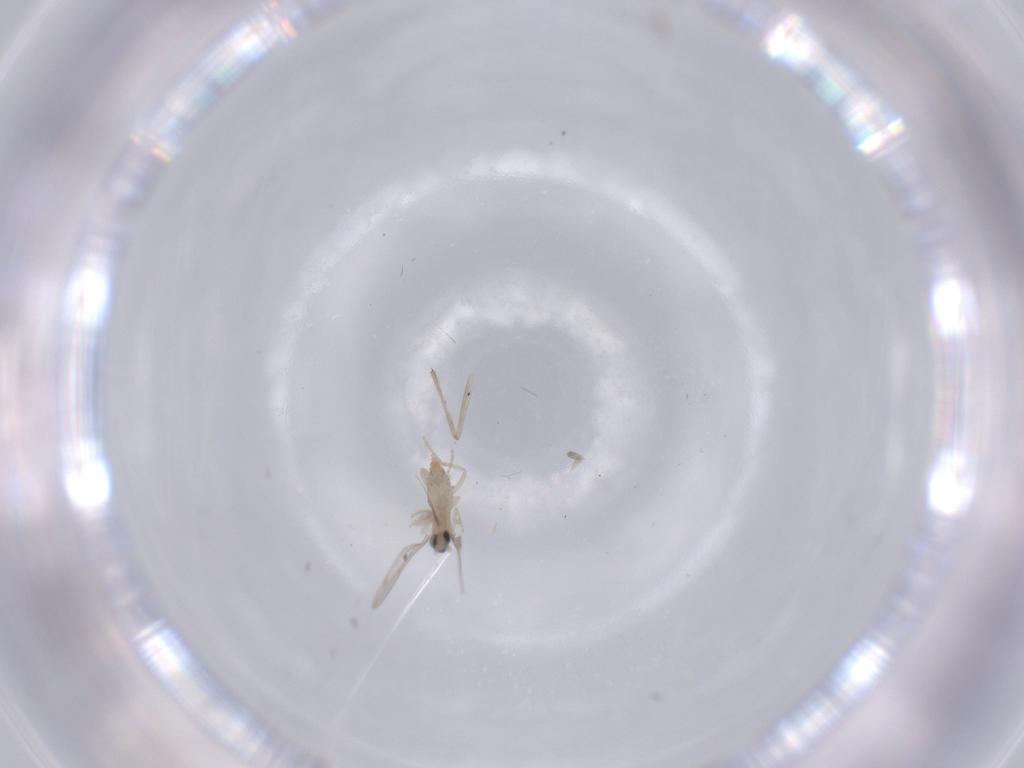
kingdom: Animalia
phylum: Arthropoda
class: Insecta
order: Diptera
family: Cecidomyiidae
